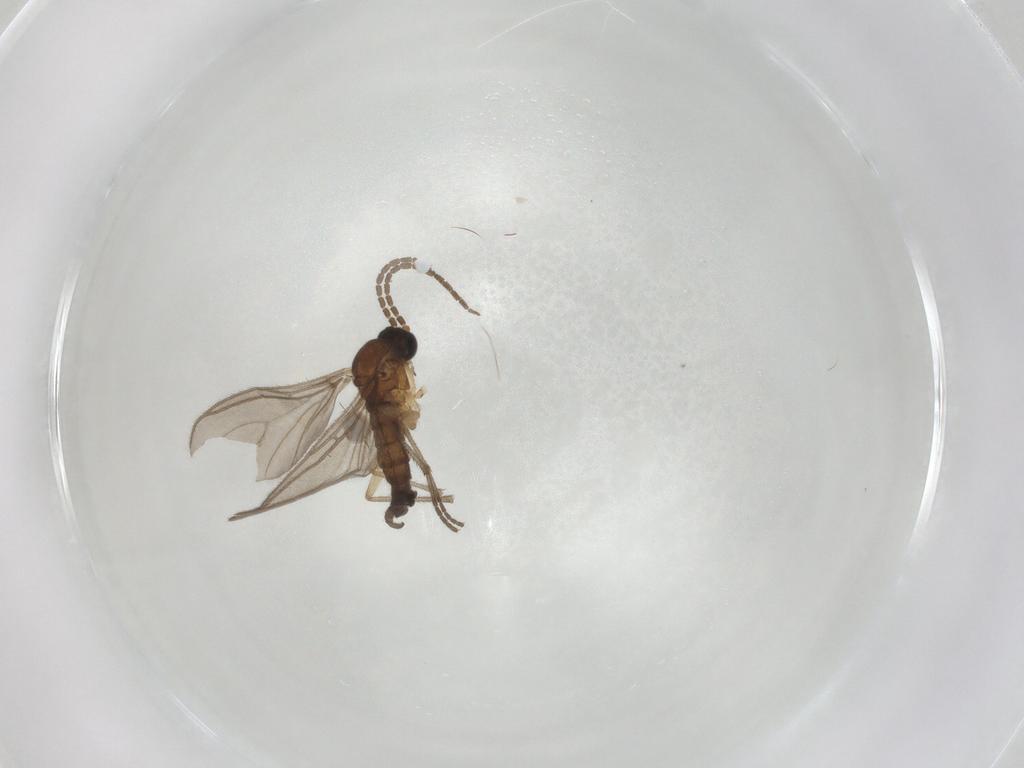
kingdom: Animalia
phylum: Arthropoda
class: Insecta
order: Diptera
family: Sciaridae
